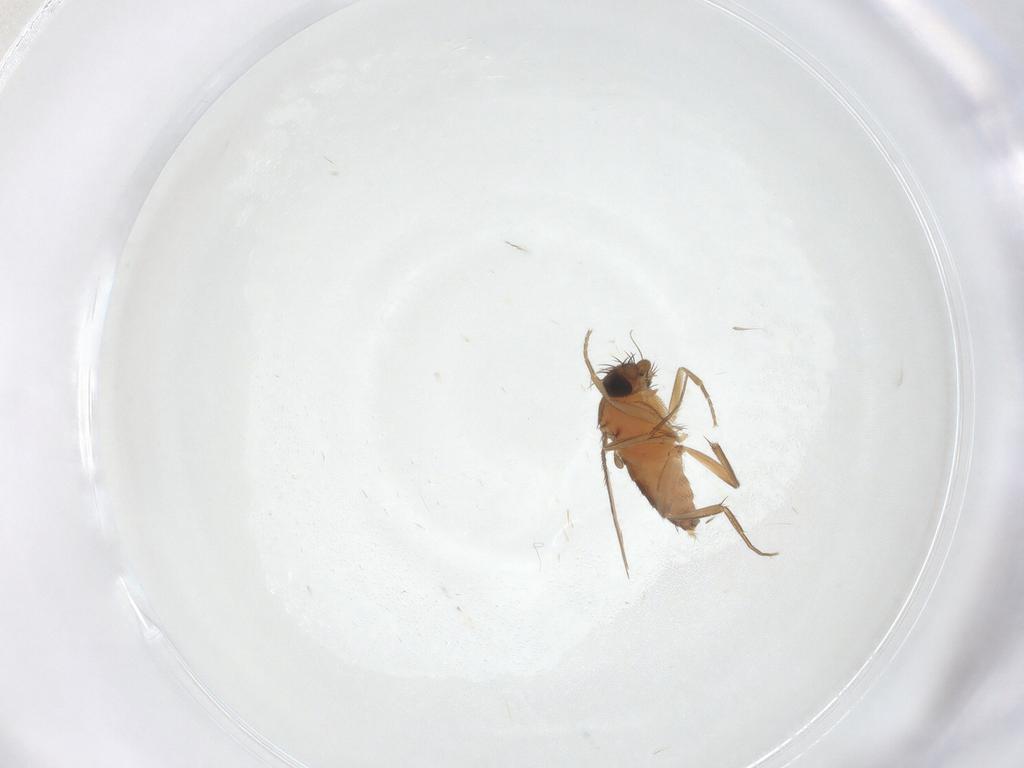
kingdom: Animalia
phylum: Arthropoda
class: Insecta
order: Diptera
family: Phoridae
